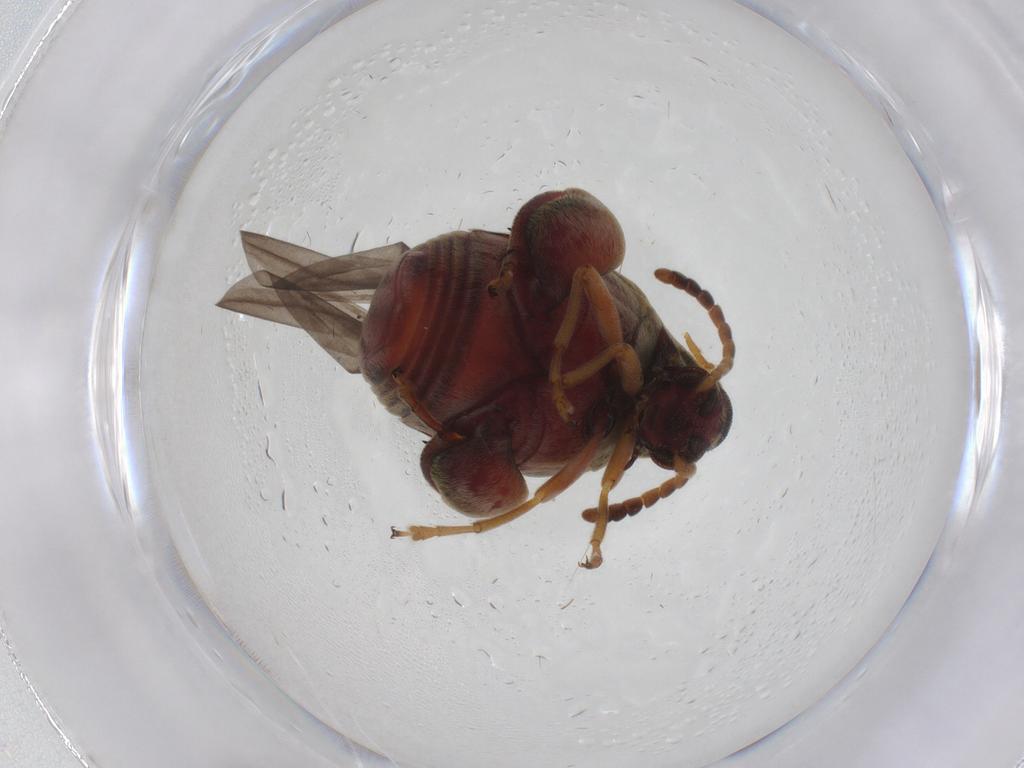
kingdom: Animalia
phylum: Arthropoda
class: Insecta
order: Coleoptera
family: Chrysomelidae
